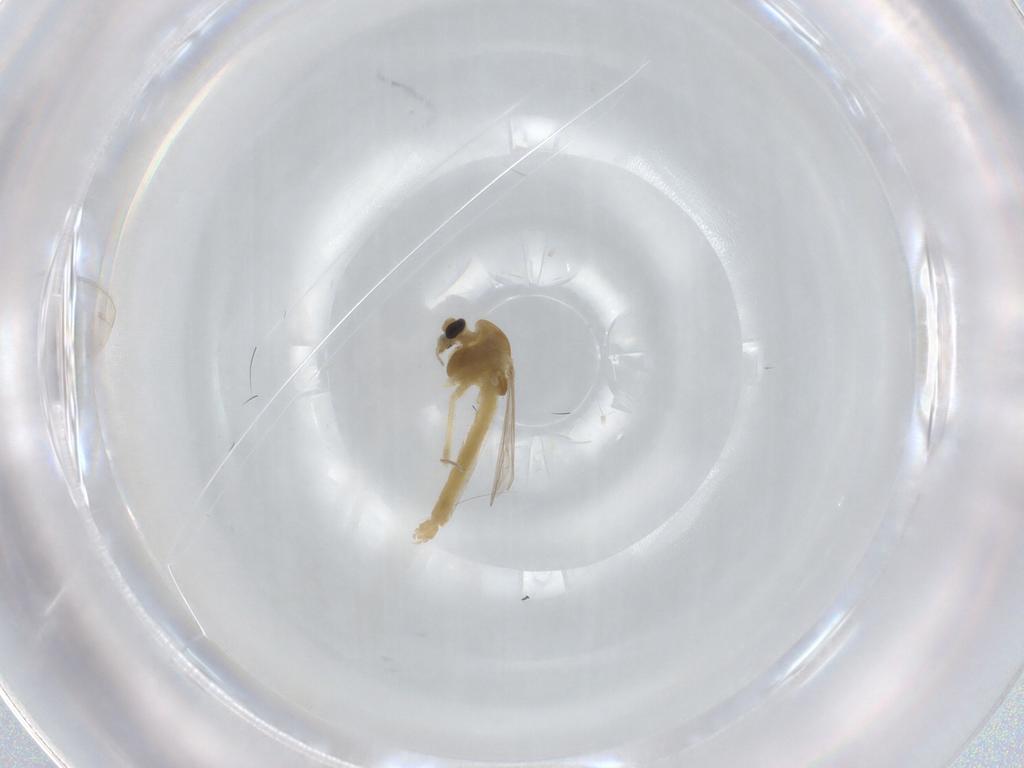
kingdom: Animalia
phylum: Arthropoda
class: Insecta
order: Diptera
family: Chironomidae
